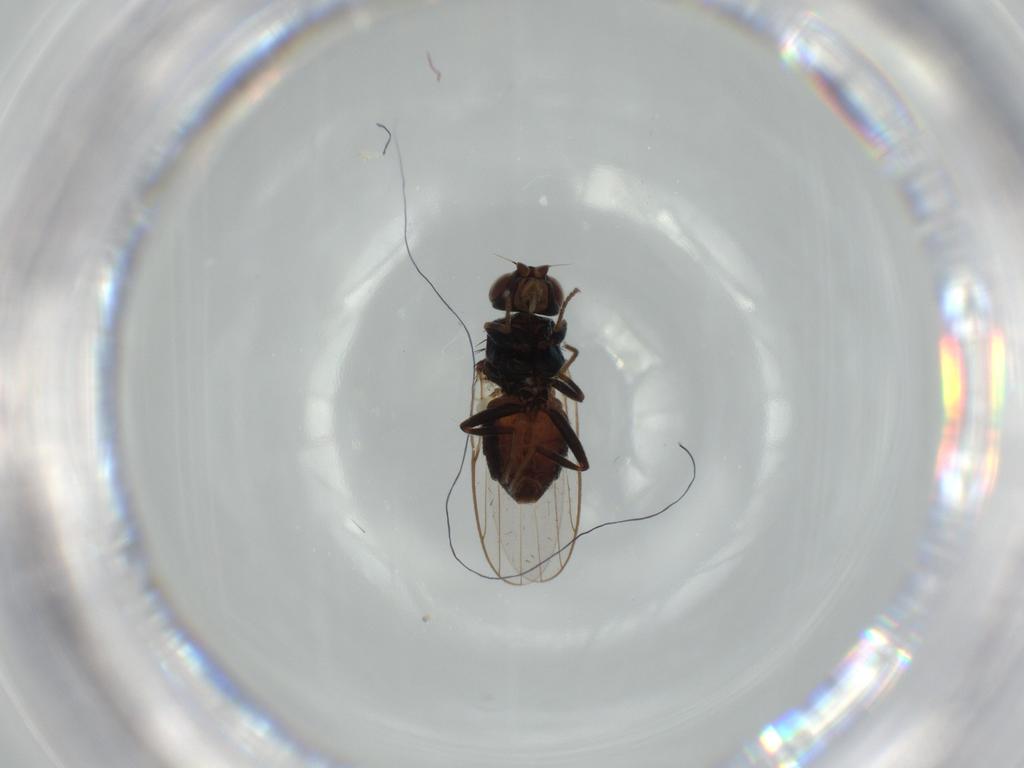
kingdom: Animalia
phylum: Arthropoda
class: Insecta
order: Diptera
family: Chloropidae
